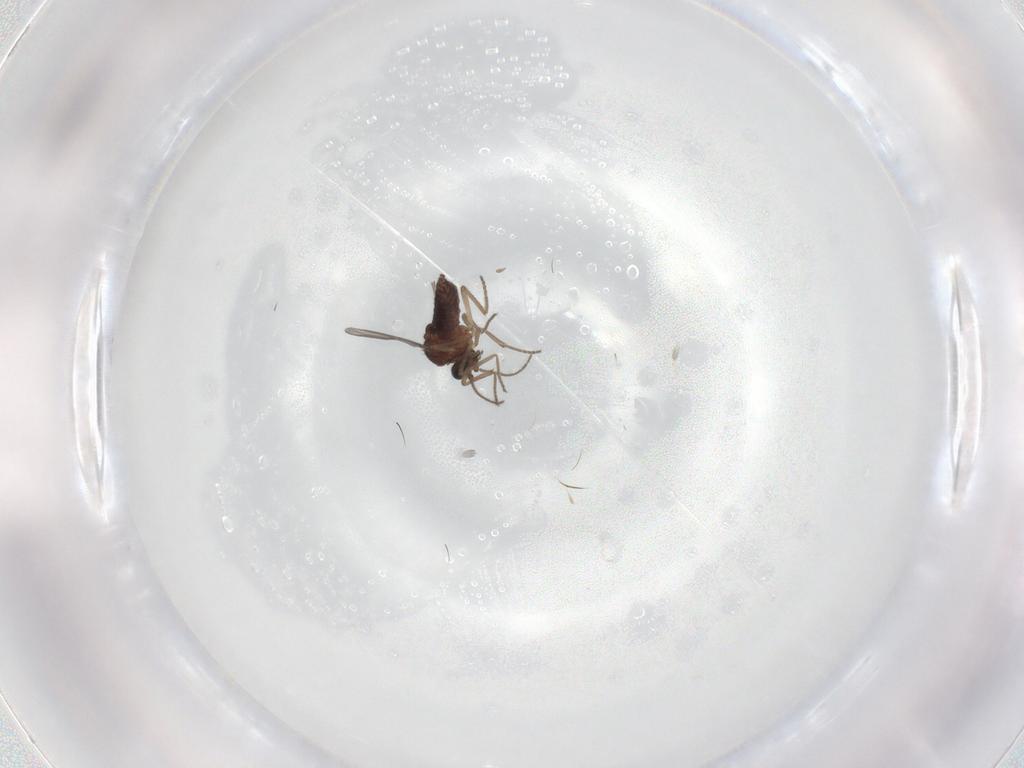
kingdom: Animalia
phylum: Arthropoda
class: Insecta
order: Diptera
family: Ceratopogonidae
